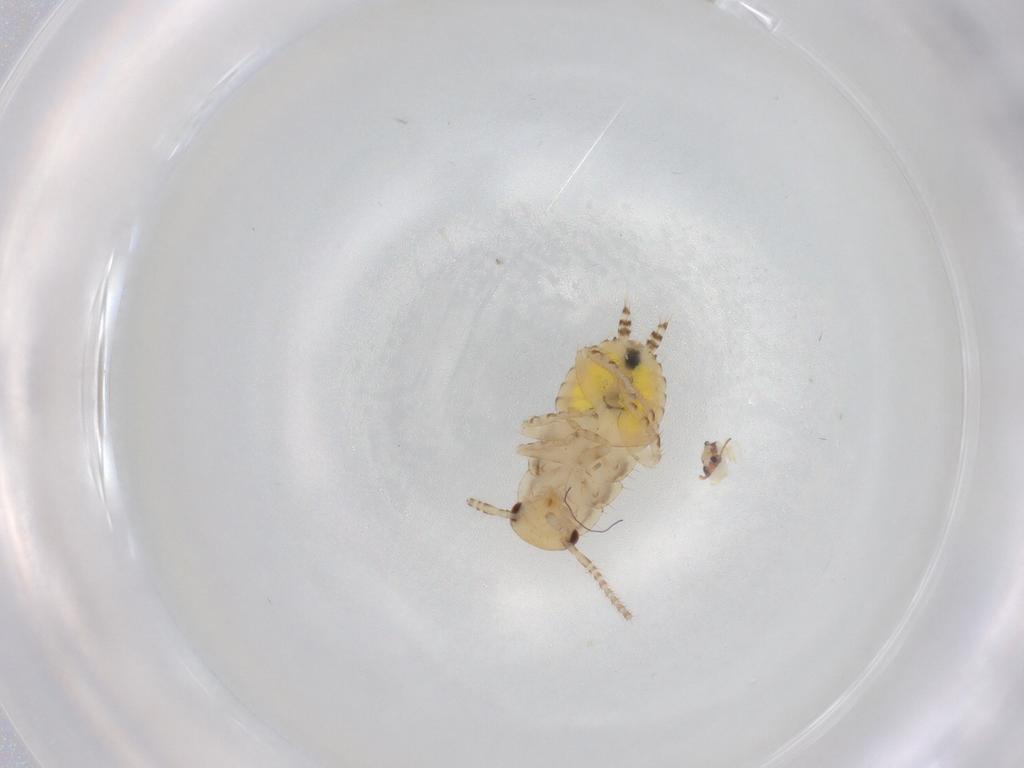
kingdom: Animalia
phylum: Arthropoda
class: Insecta
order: Blattodea
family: Ectobiidae
